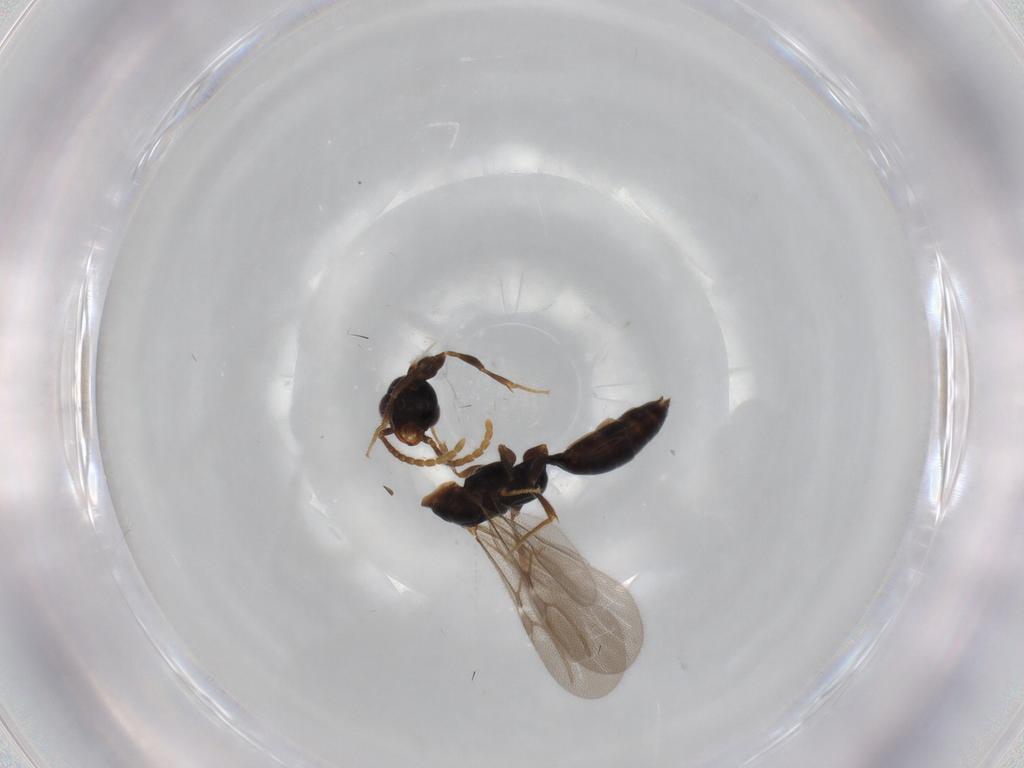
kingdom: Animalia
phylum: Arthropoda
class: Insecta
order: Hymenoptera
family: Bethylidae
